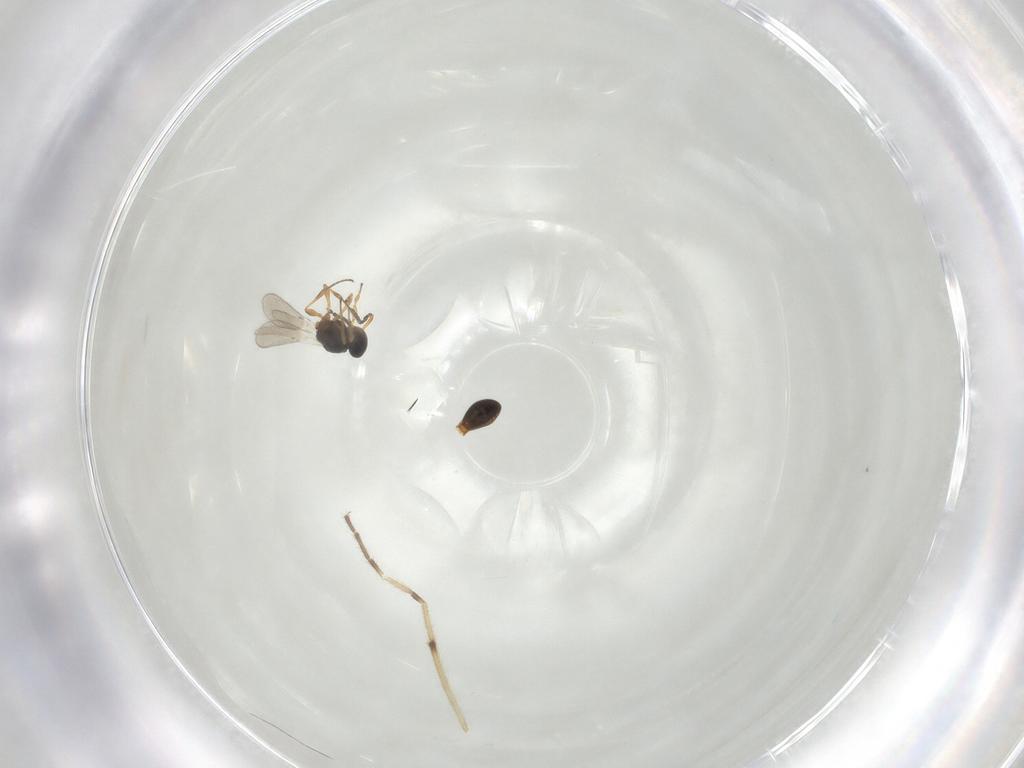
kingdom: Animalia
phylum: Arthropoda
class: Insecta
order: Hymenoptera
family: Platygastridae
